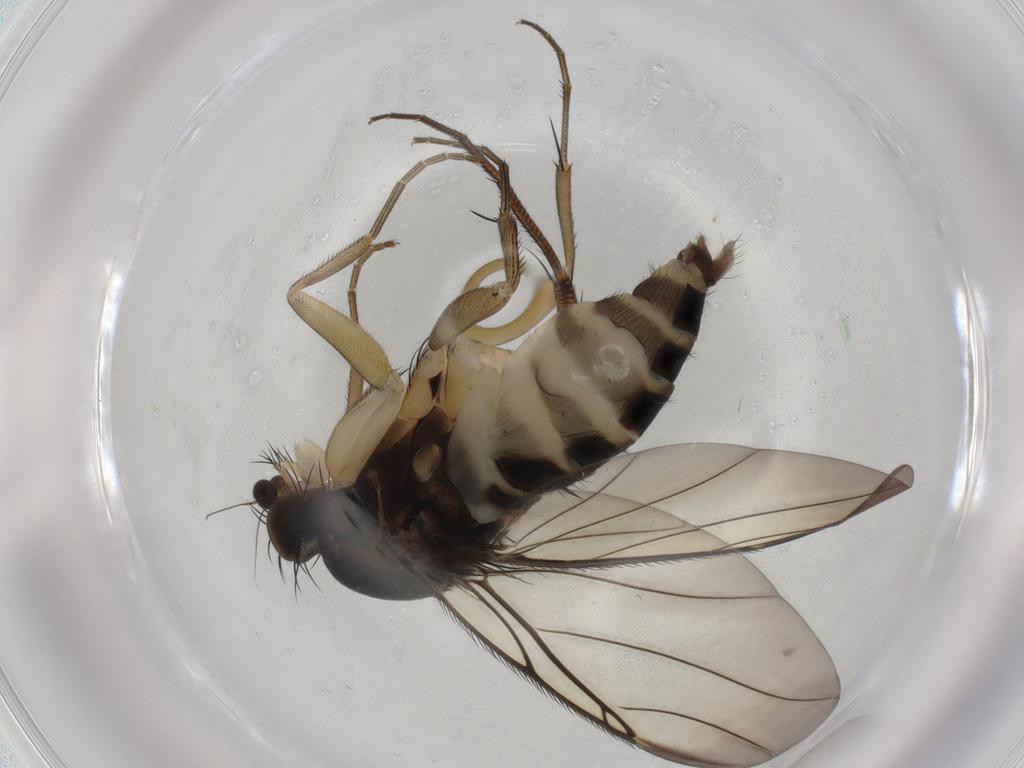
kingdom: Animalia
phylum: Arthropoda
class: Insecta
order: Diptera
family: Phoridae
